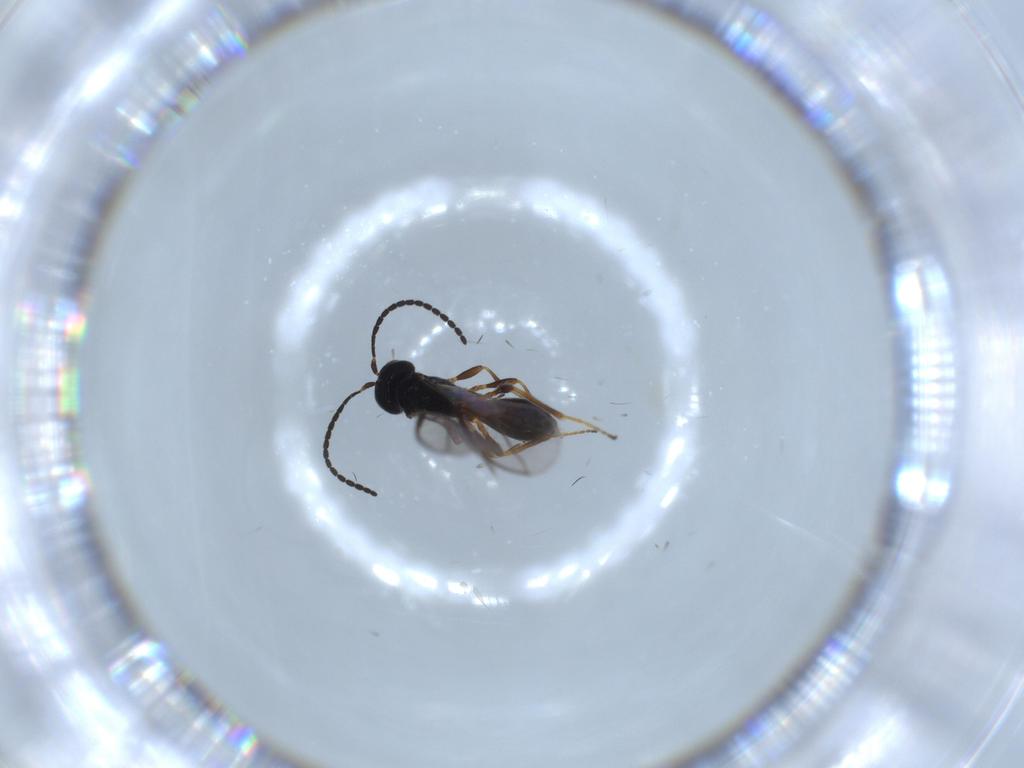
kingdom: Animalia
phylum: Arthropoda
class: Insecta
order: Hymenoptera
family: Braconidae
